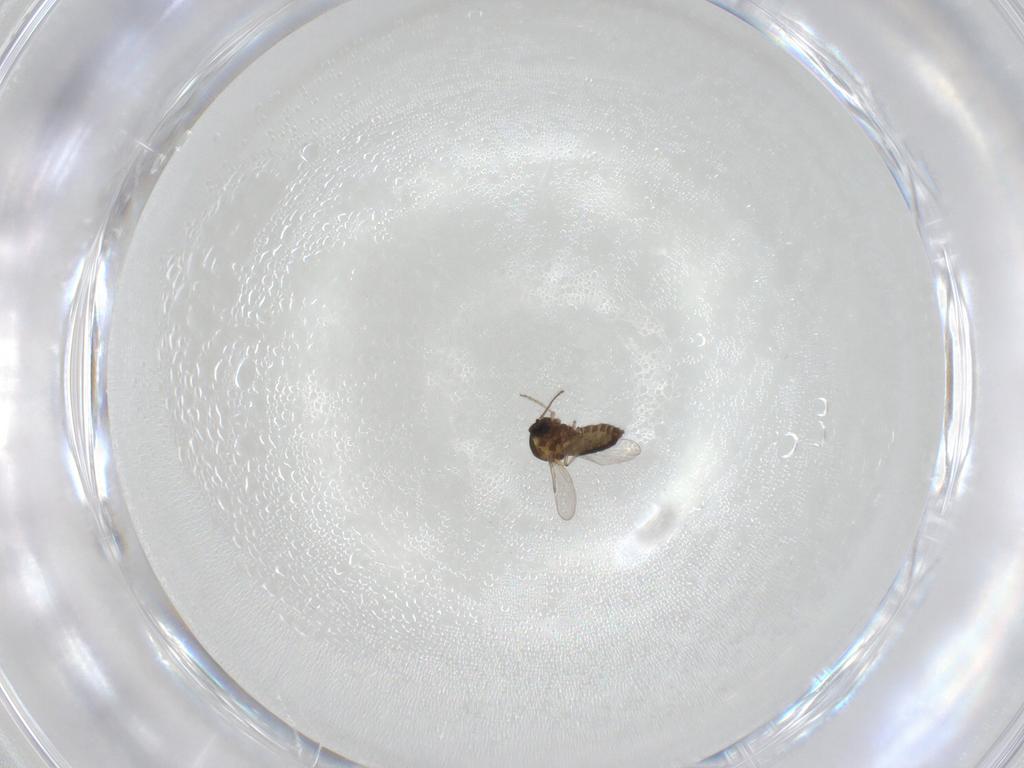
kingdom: Animalia
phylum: Arthropoda
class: Insecta
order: Diptera
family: Ceratopogonidae
